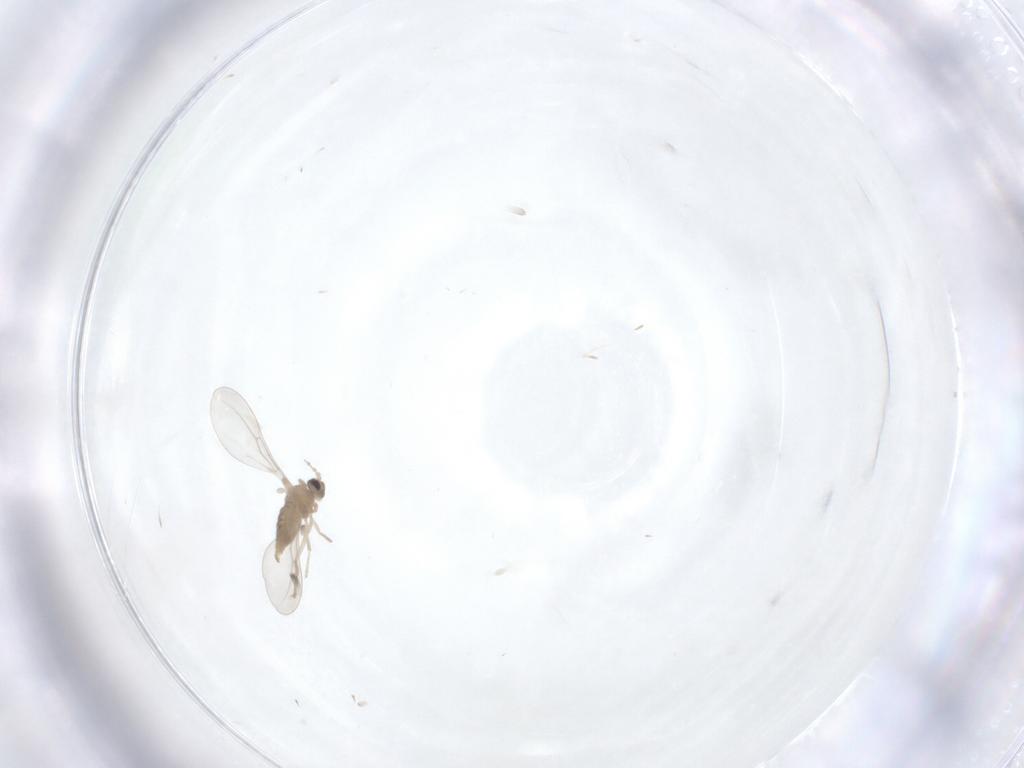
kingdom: Animalia
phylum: Arthropoda
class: Insecta
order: Diptera
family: Cecidomyiidae
